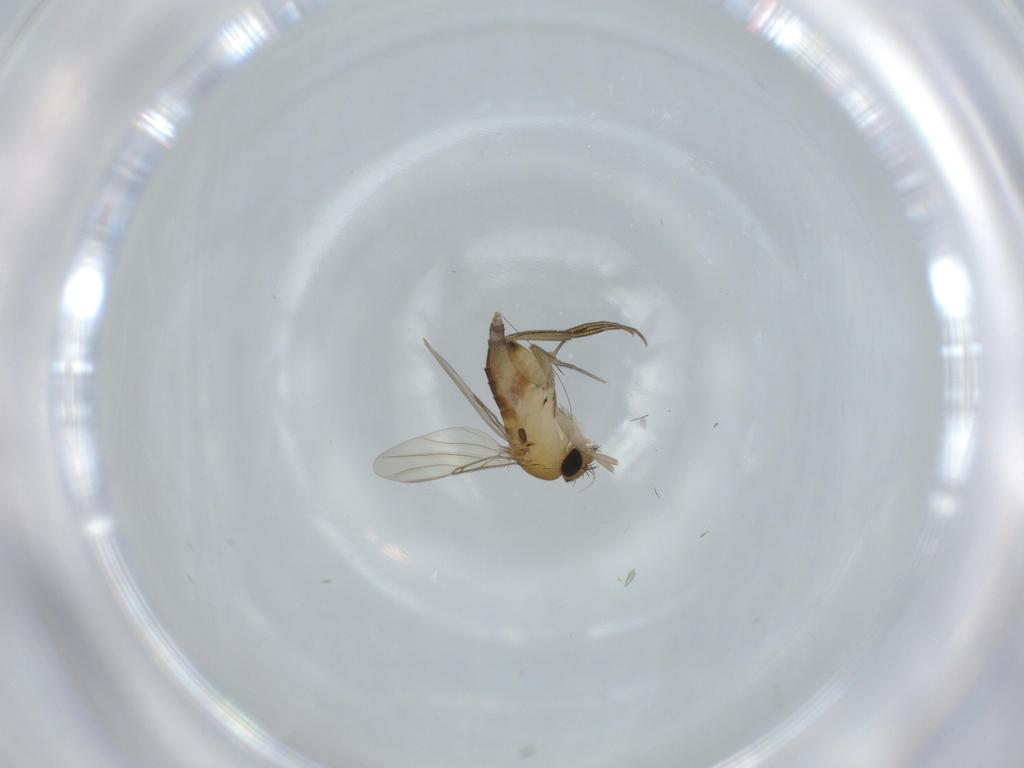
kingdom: Animalia
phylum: Arthropoda
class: Insecta
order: Diptera
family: Phoridae
